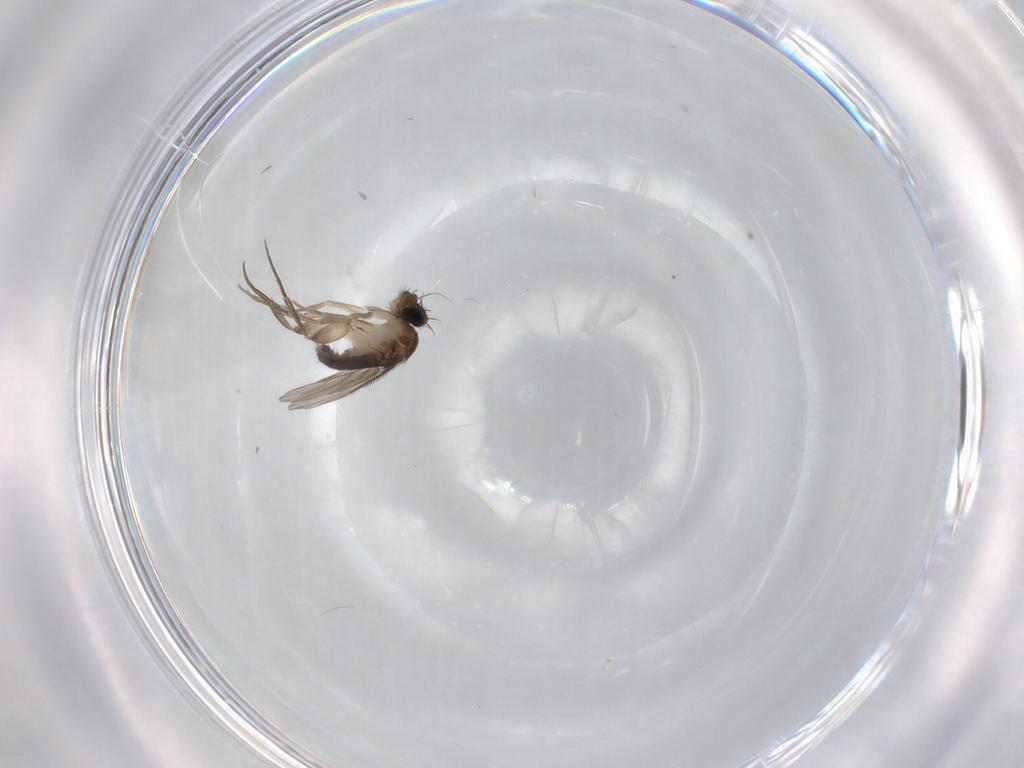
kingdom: Animalia
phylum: Arthropoda
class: Insecta
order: Diptera
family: Phoridae
